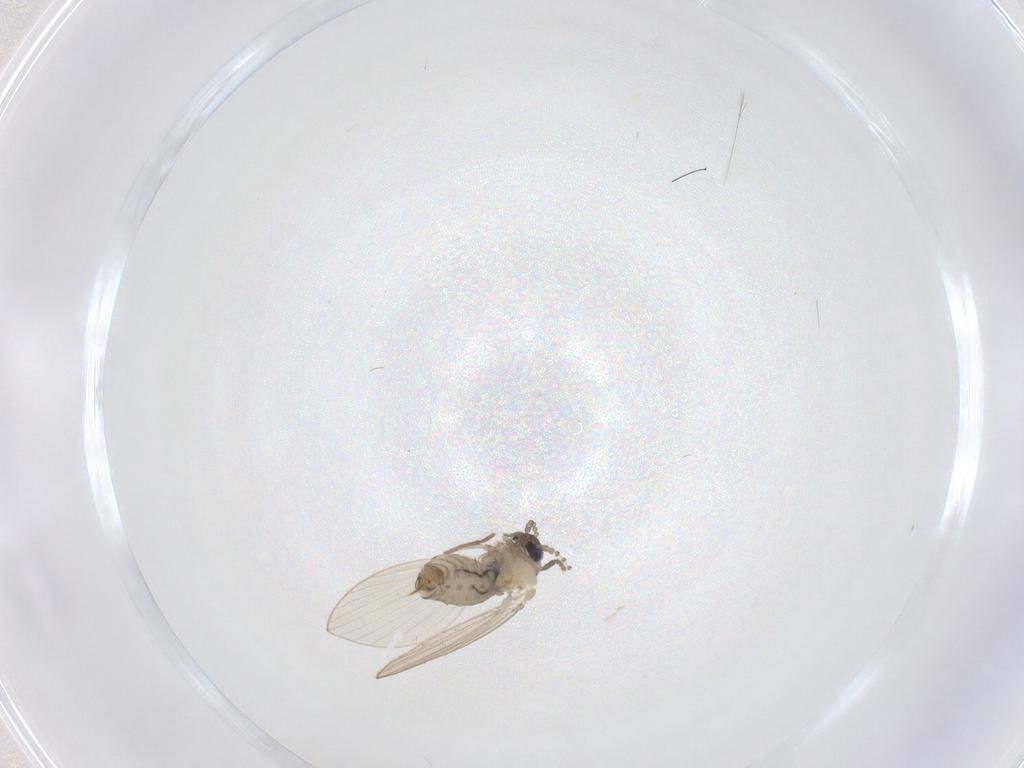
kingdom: Animalia
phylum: Arthropoda
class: Insecta
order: Diptera
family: Psychodidae
